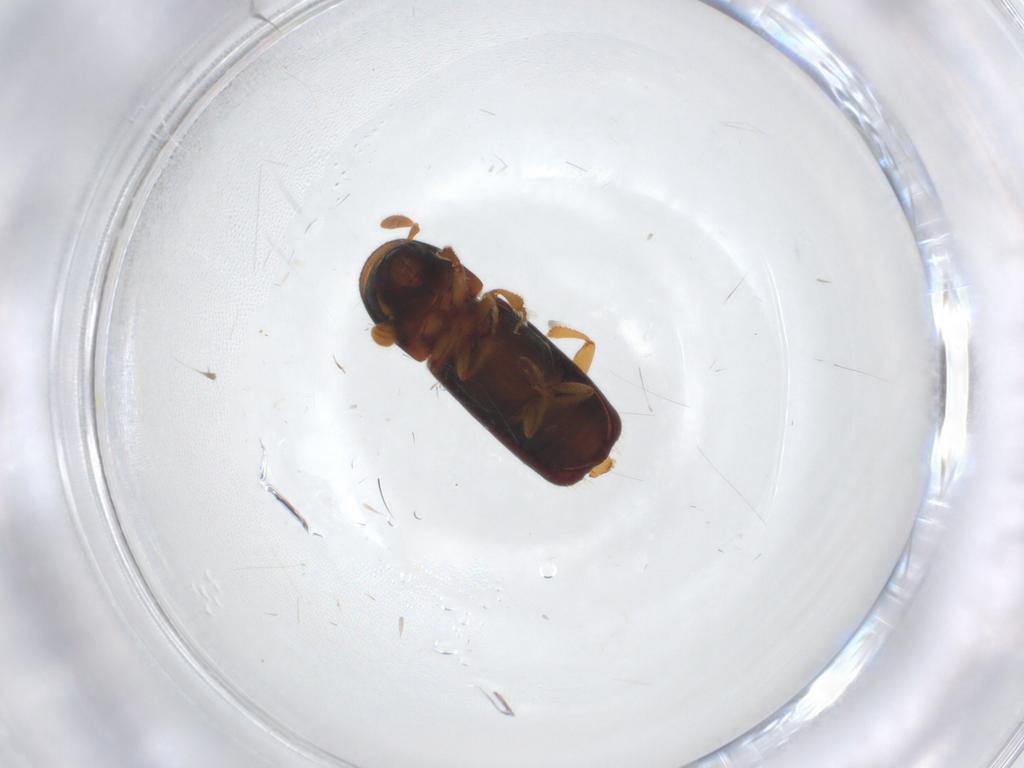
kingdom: Animalia
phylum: Arthropoda
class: Insecta
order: Coleoptera
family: Curculionidae
